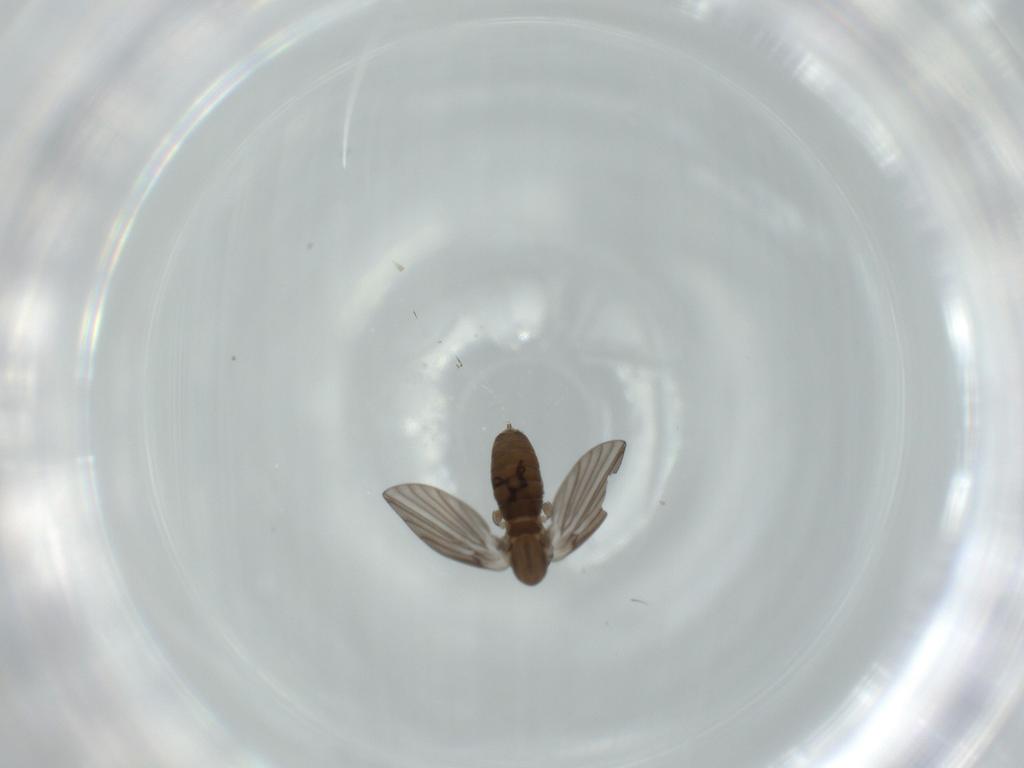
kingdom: Animalia
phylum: Arthropoda
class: Insecta
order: Diptera
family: Psychodidae
